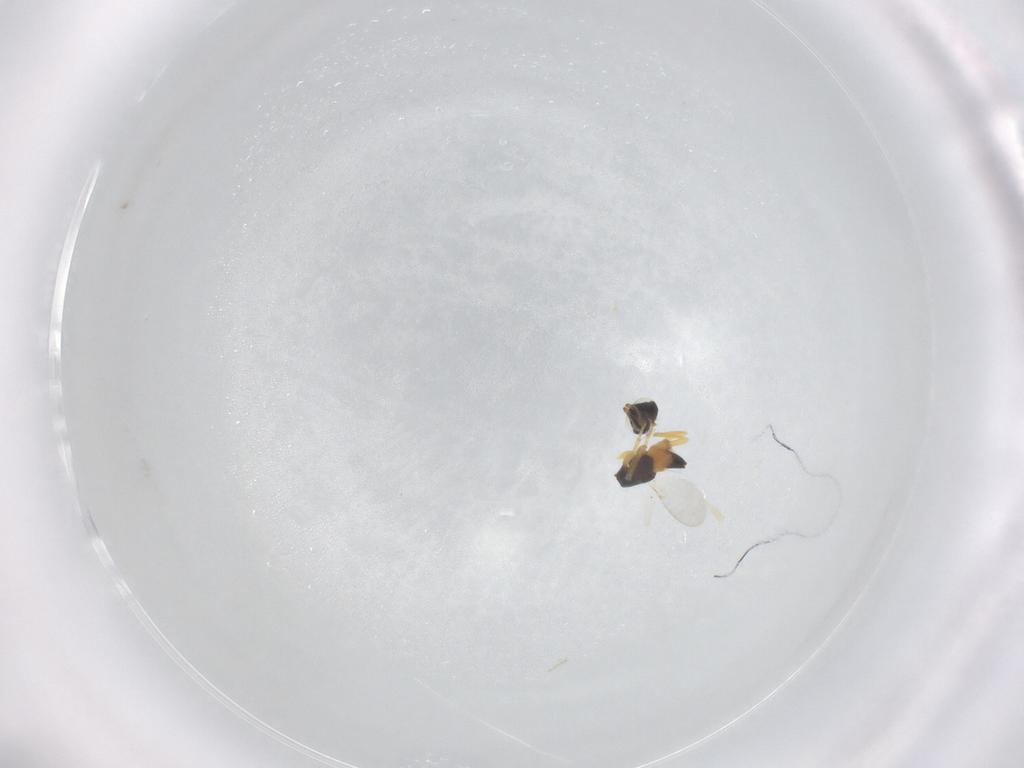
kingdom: Animalia
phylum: Arthropoda
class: Insecta
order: Hymenoptera
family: Encyrtidae
